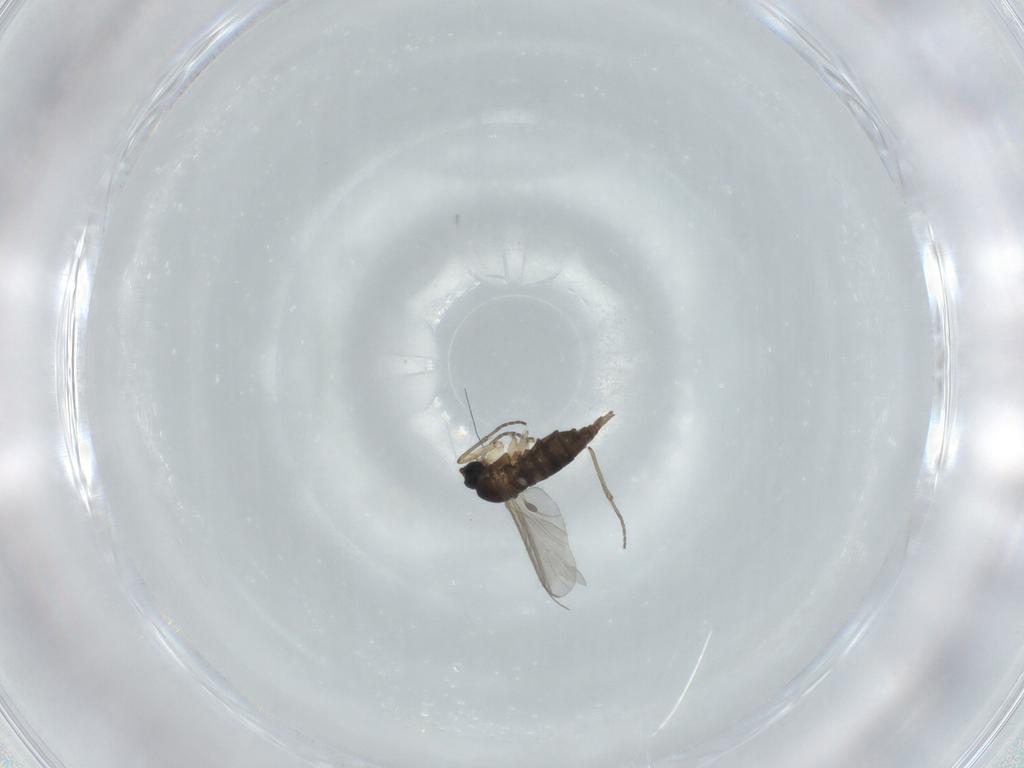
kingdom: Animalia
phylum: Arthropoda
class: Insecta
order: Diptera
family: Sciaridae
